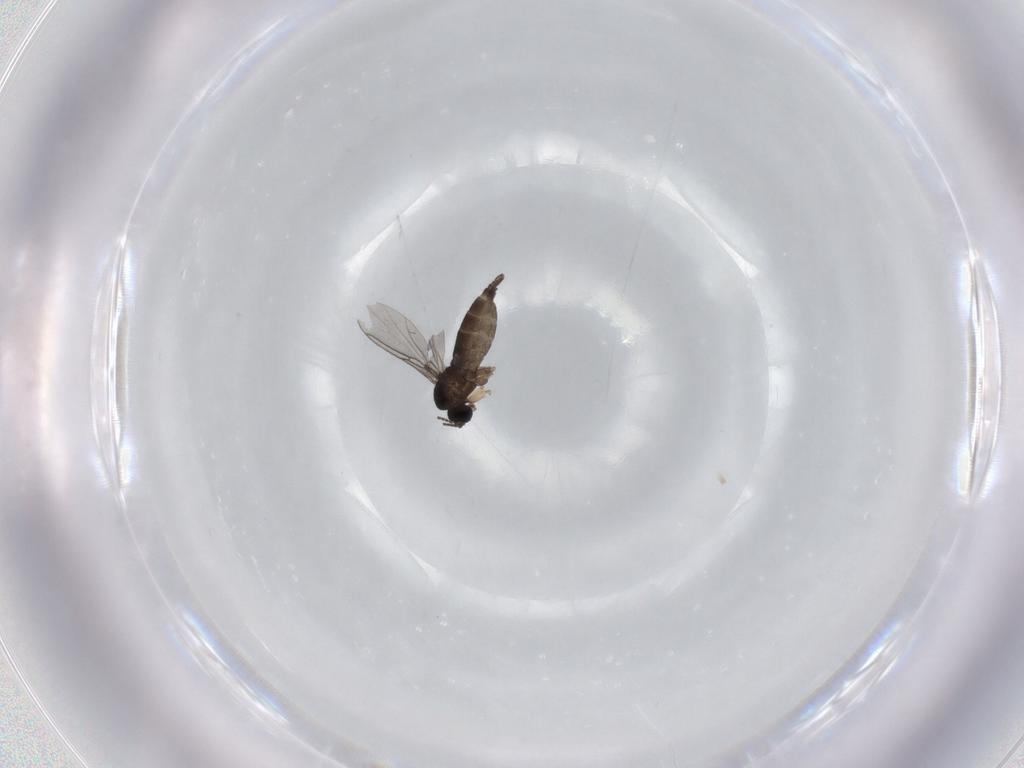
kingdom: Animalia
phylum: Arthropoda
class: Insecta
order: Diptera
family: Sciaridae
